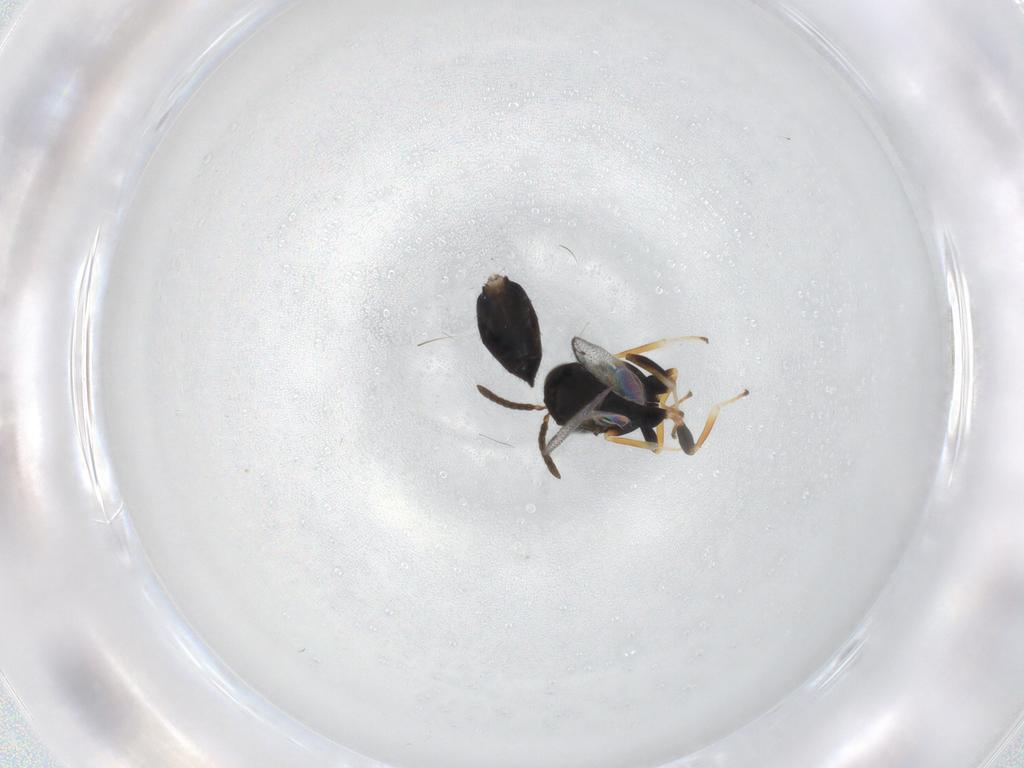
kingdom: Animalia
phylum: Arthropoda
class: Insecta
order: Hymenoptera
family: Pteromalidae
